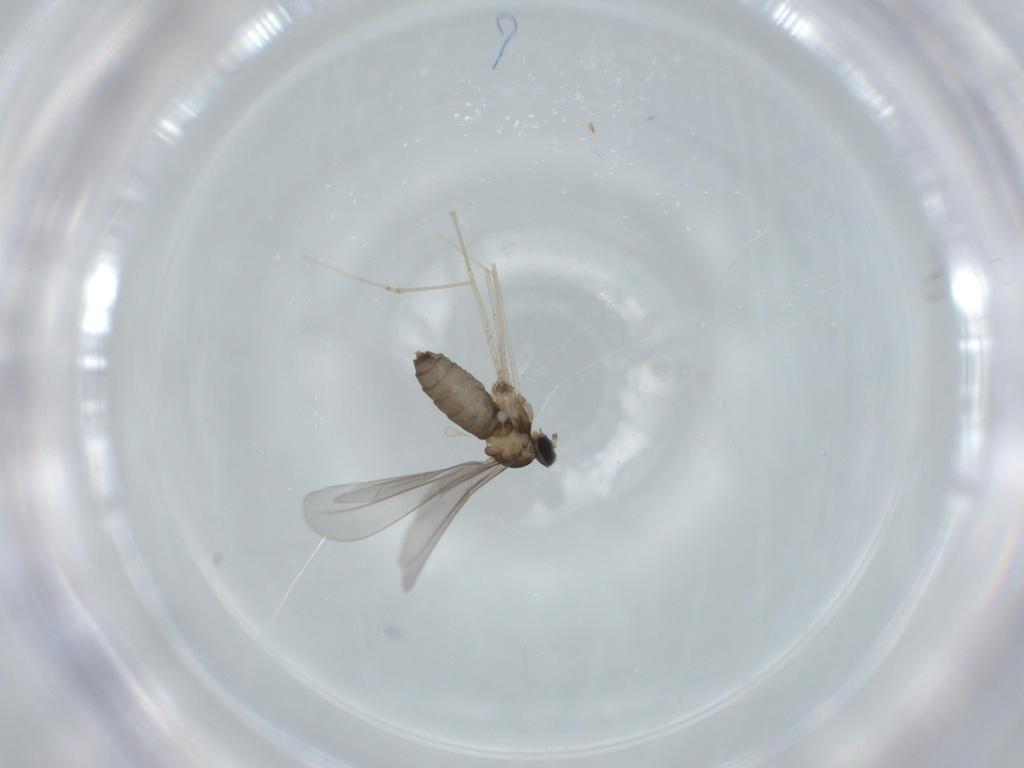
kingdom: Animalia
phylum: Arthropoda
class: Insecta
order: Diptera
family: Cecidomyiidae
